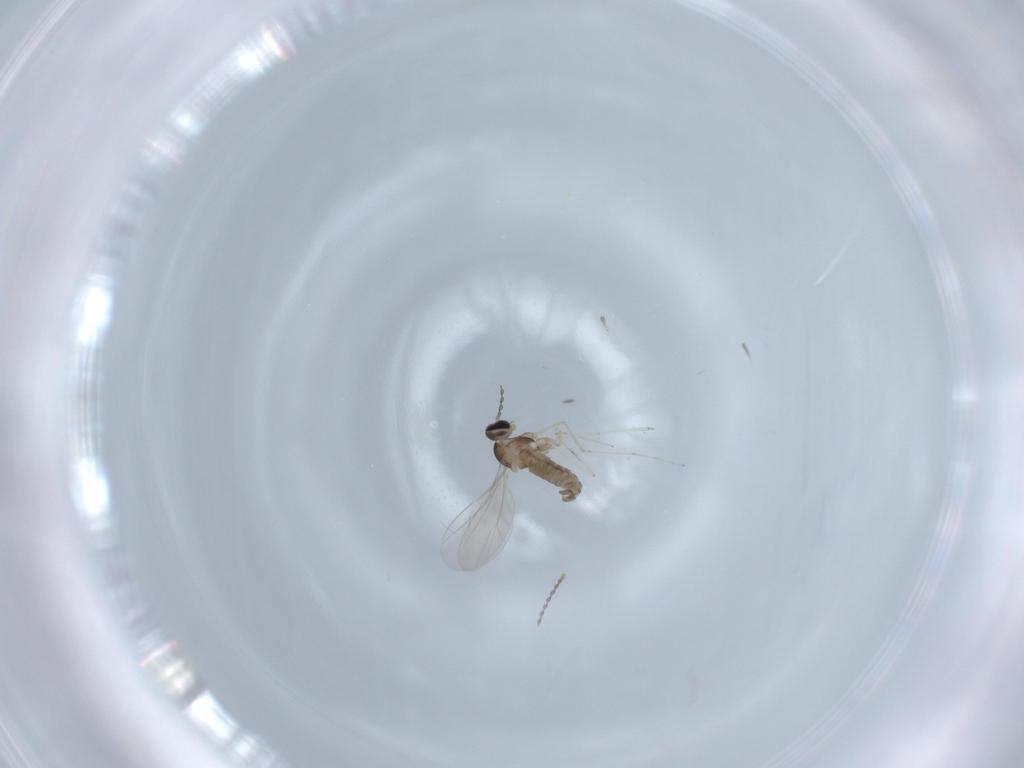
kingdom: Animalia
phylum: Arthropoda
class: Insecta
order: Diptera
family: Cecidomyiidae
